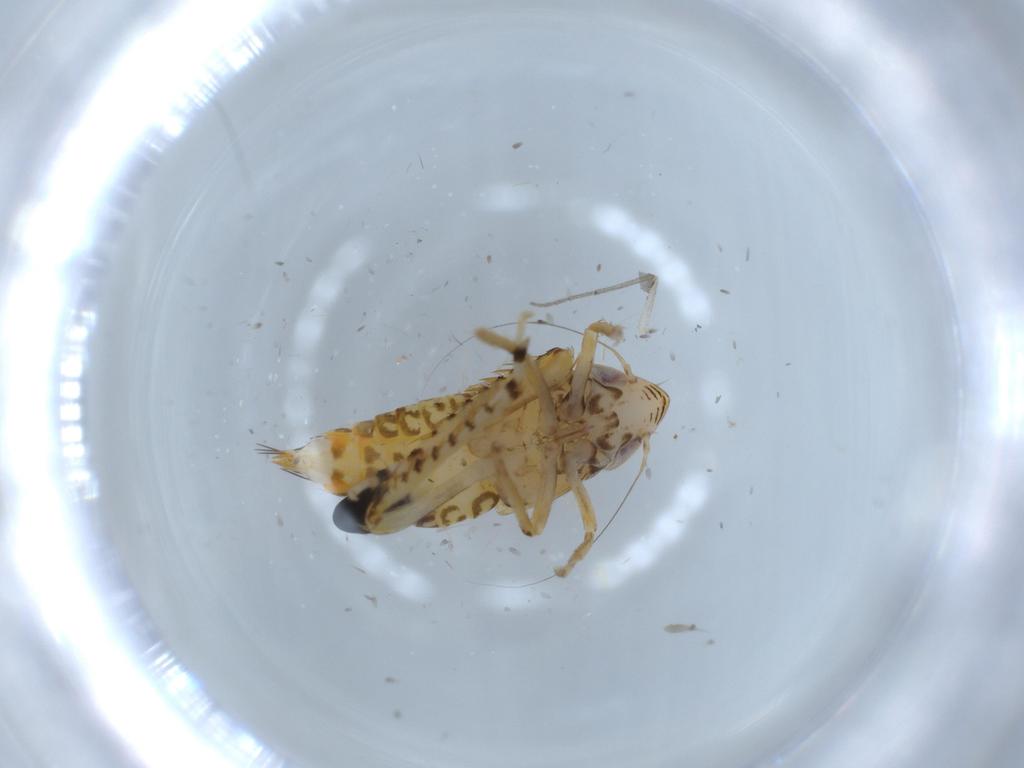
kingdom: Animalia
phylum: Arthropoda
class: Insecta
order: Hemiptera
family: Cicadellidae
